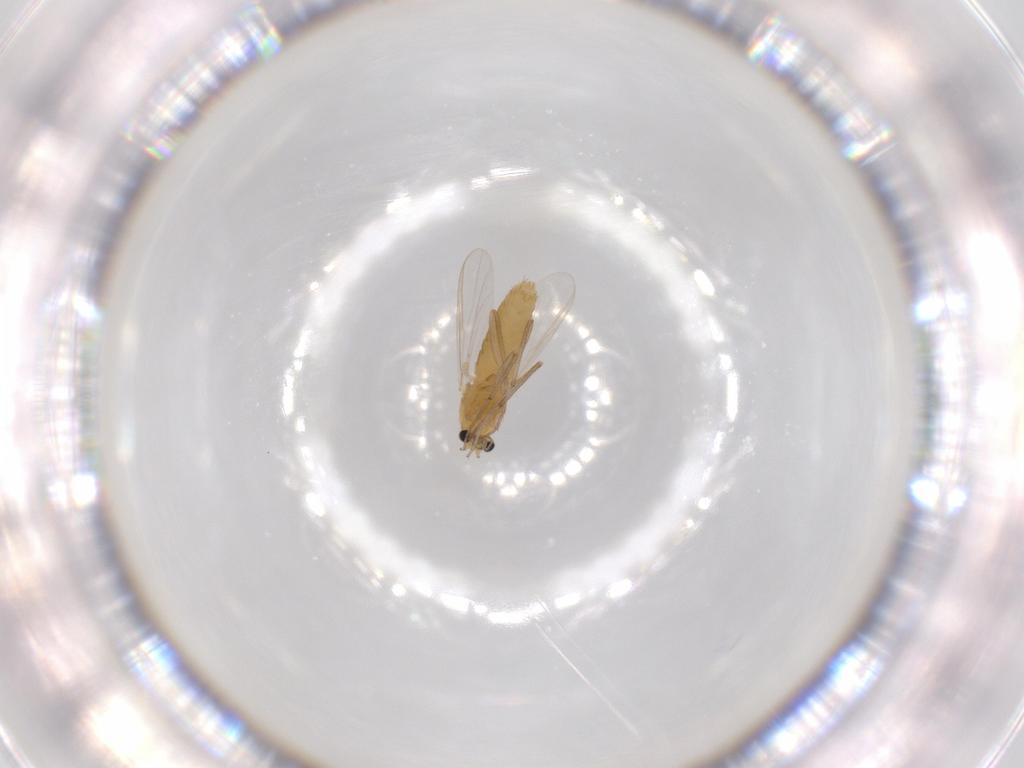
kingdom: Animalia
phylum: Arthropoda
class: Insecta
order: Diptera
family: Chironomidae
